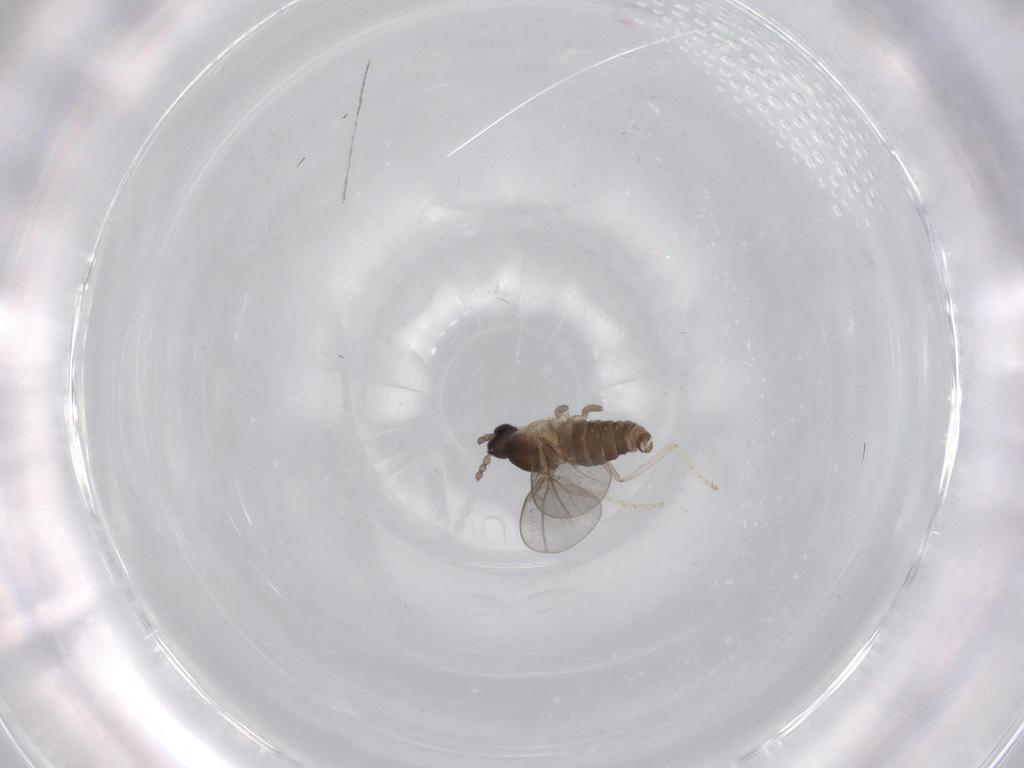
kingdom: Animalia
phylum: Arthropoda
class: Insecta
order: Diptera
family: Cecidomyiidae
